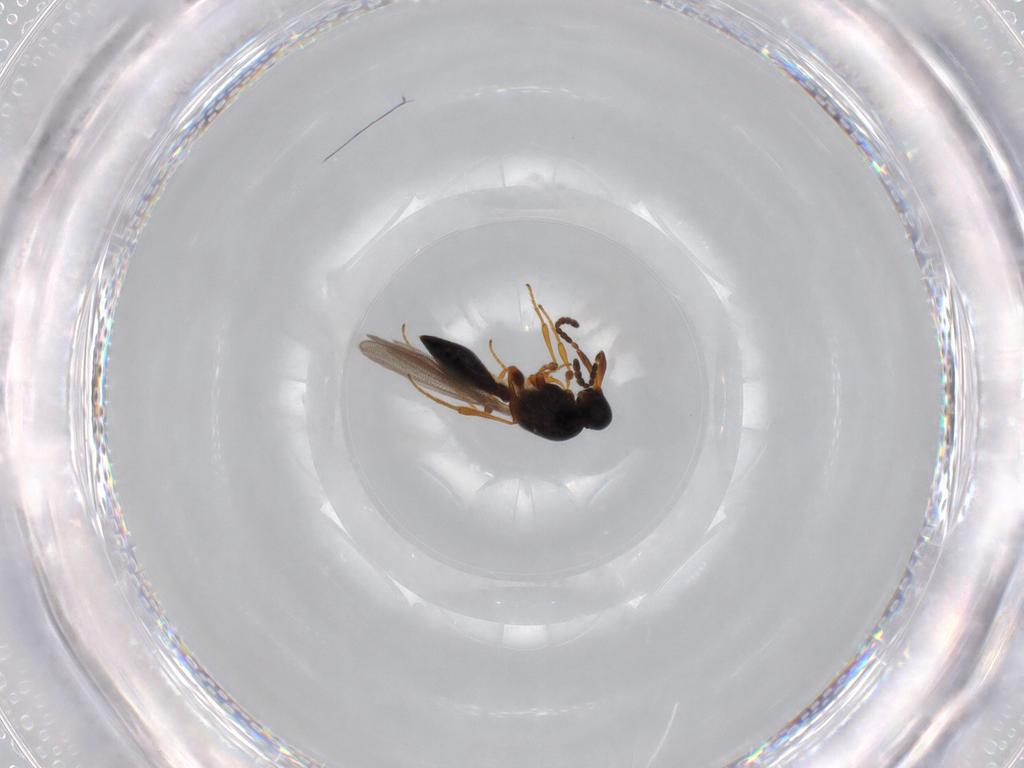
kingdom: Animalia
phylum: Arthropoda
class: Insecta
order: Hymenoptera
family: Platygastridae
